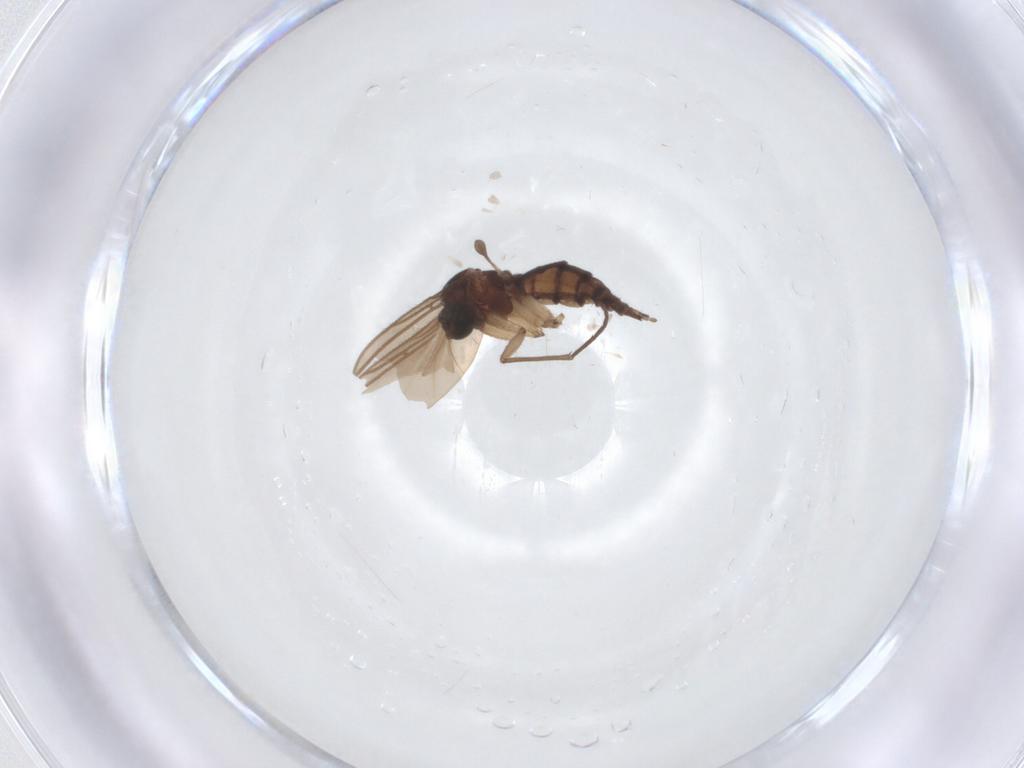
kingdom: Animalia
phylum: Arthropoda
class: Insecta
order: Diptera
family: Sciaridae
